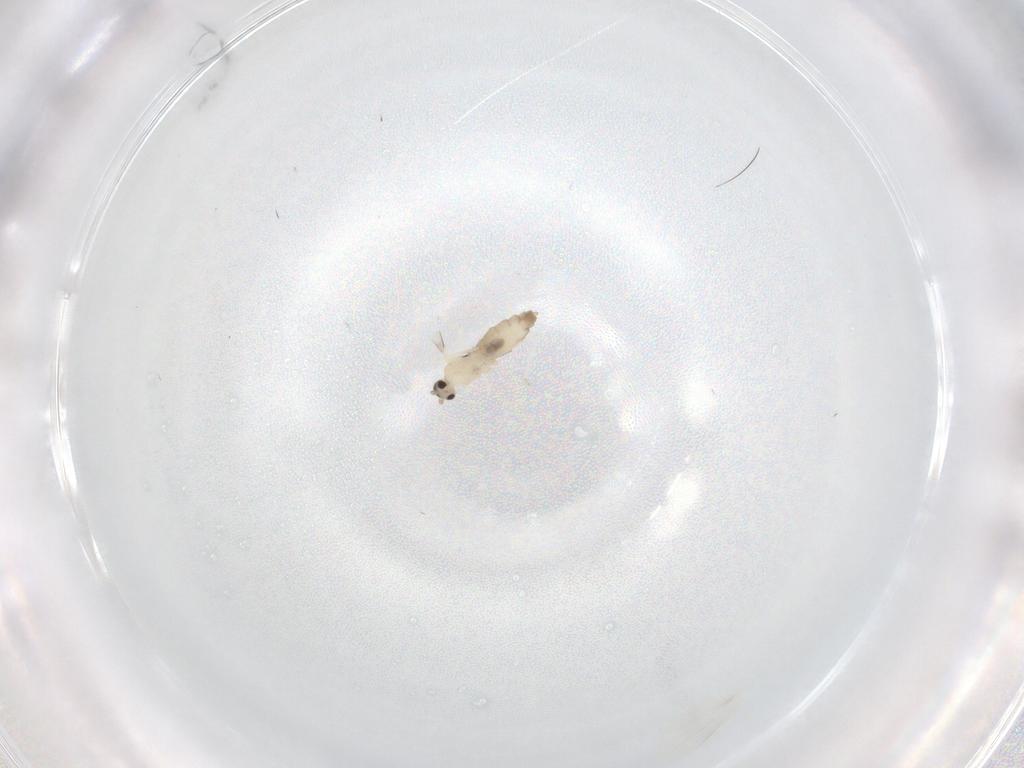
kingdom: Animalia
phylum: Arthropoda
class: Insecta
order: Diptera
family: Cecidomyiidae
